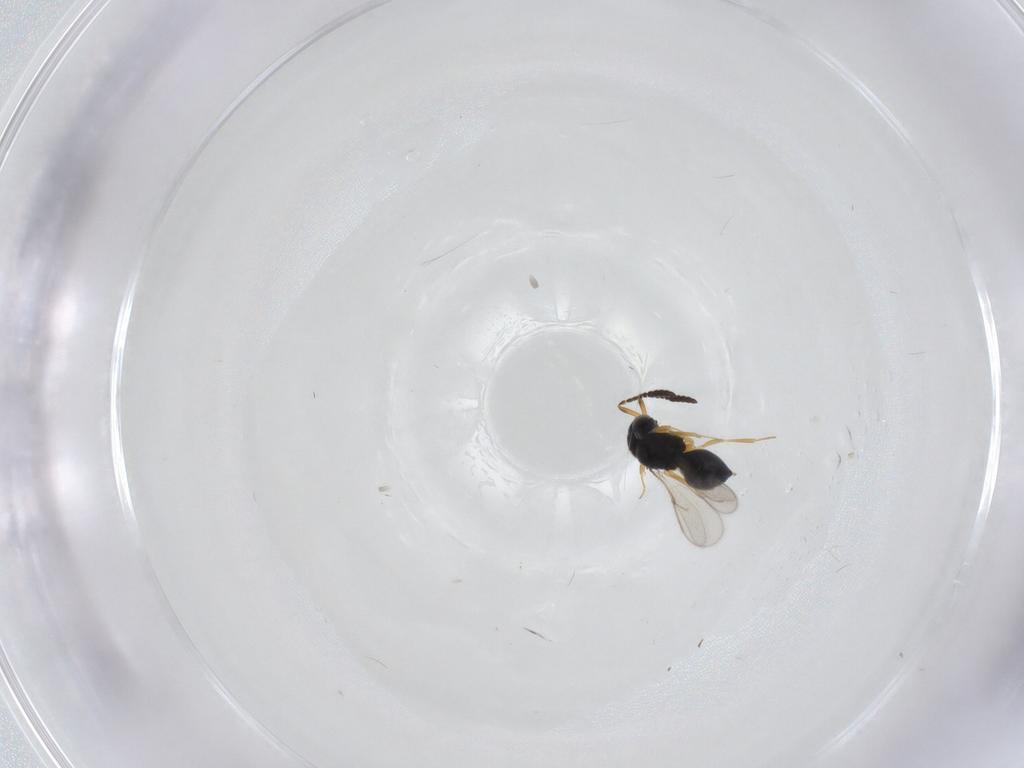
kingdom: Animalia
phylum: Arthropoda
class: Insecta
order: Hymenoptera
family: Scelionidae
